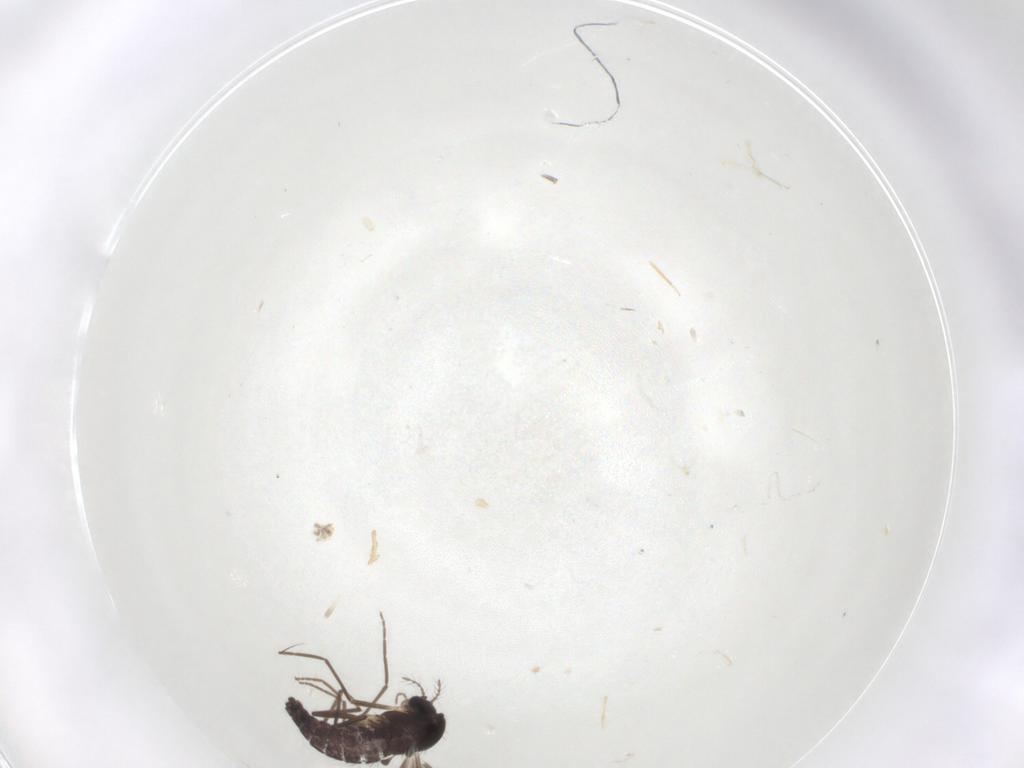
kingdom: Animalia
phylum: Arthropoda
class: Insecta
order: Diptera
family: Chironomidae
